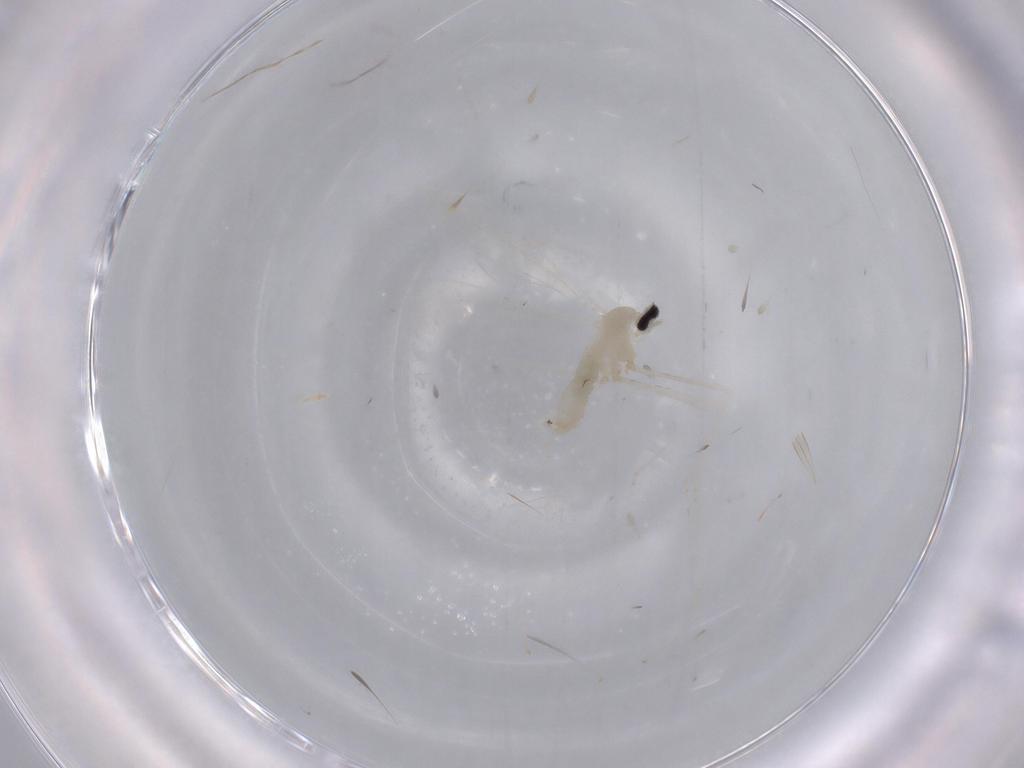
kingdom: Animalia
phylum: Arthropoda
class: Insecta
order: Diptera
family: Cecidomyiidae
